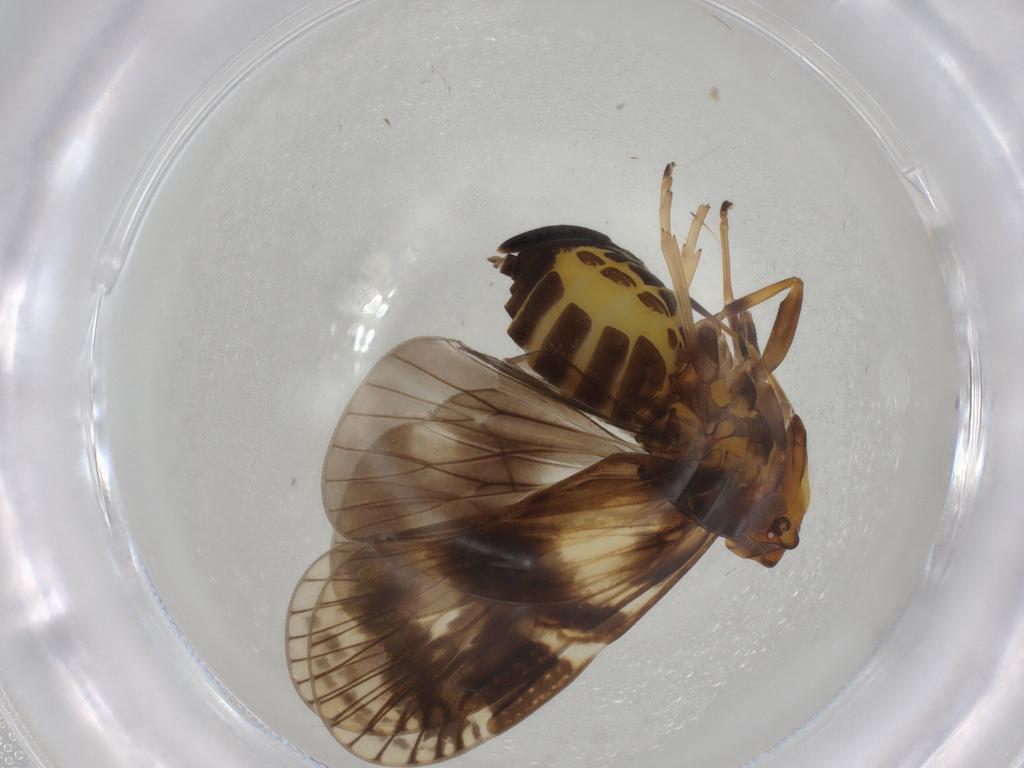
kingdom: Animalia
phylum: Arthropoda
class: Insecta
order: Hemiptera
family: Cixiidae
